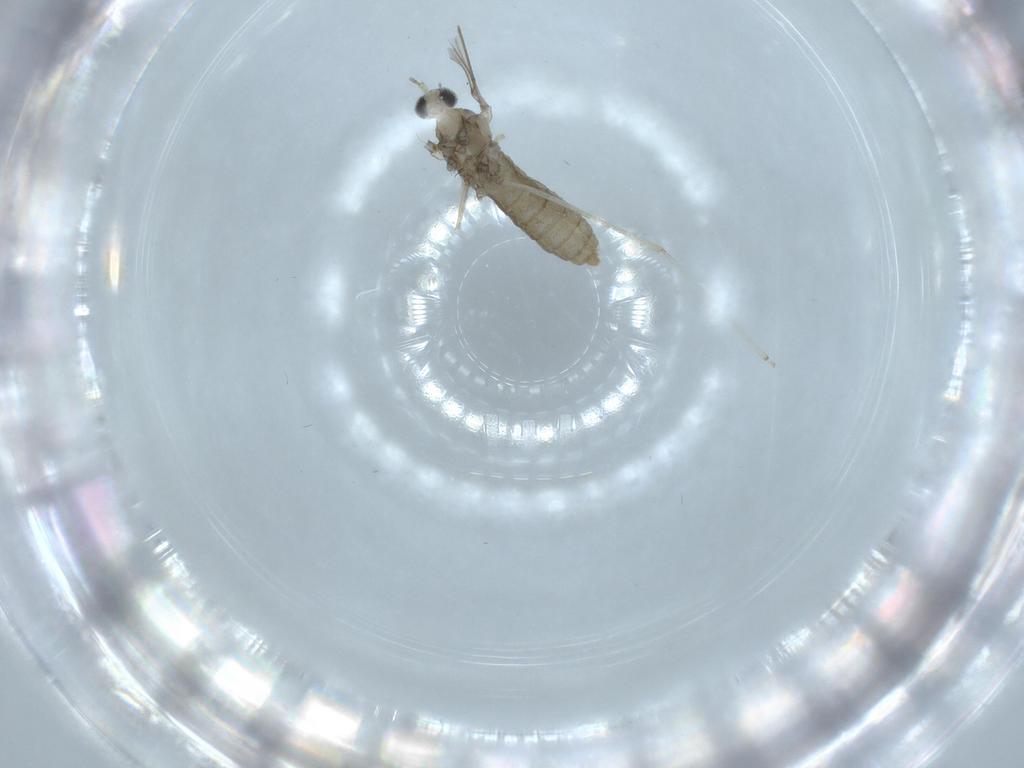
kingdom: Animalia
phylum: Arthropoda
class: Insecta
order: Diptera
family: Cecidomyiidae
